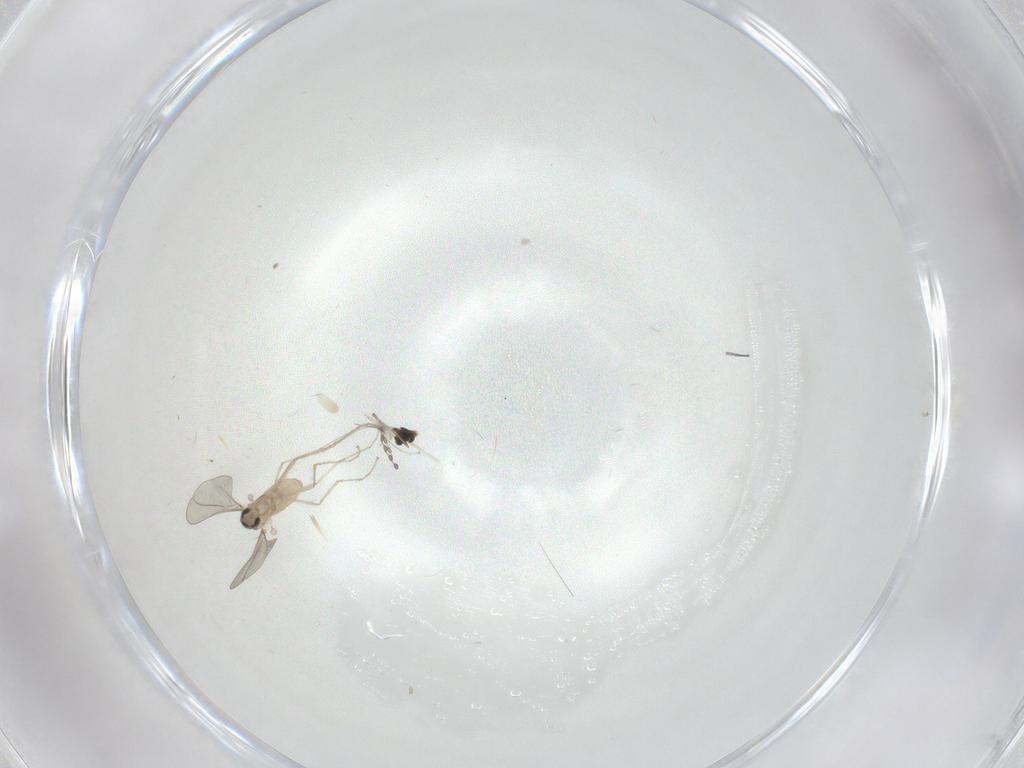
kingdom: Animalia
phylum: Arthropoda
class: Insecta
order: Diptera
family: Cecidomyiidae
